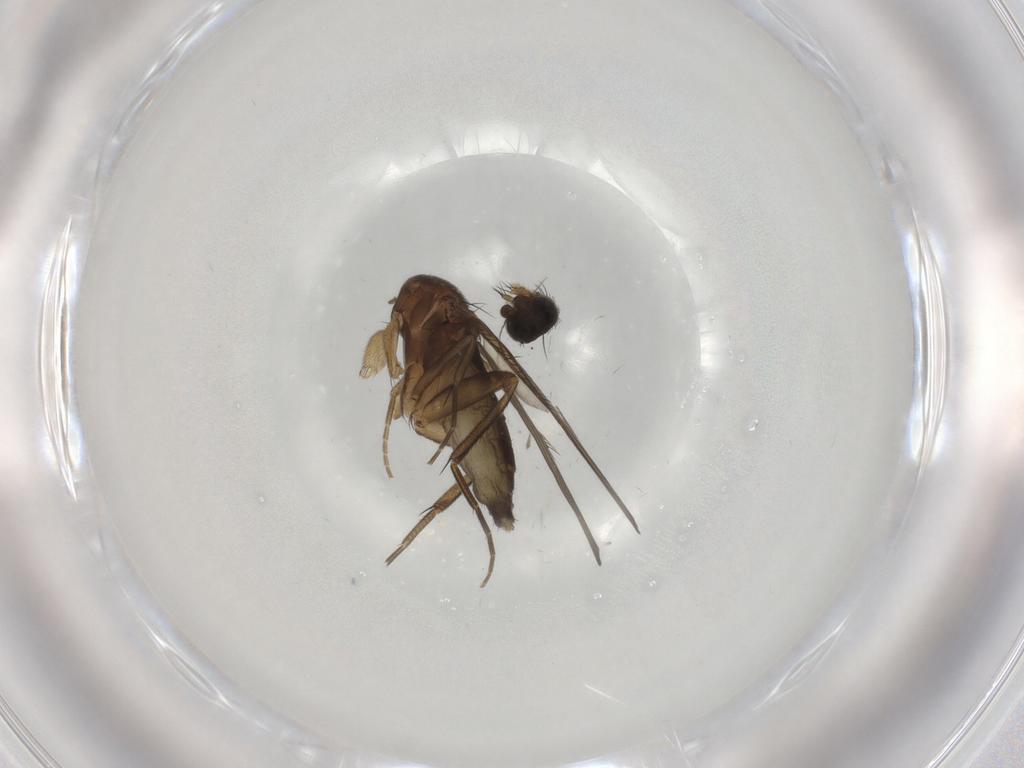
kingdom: Animalia
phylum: Arthropoda
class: Insecta
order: Diptera
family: Phoridae
